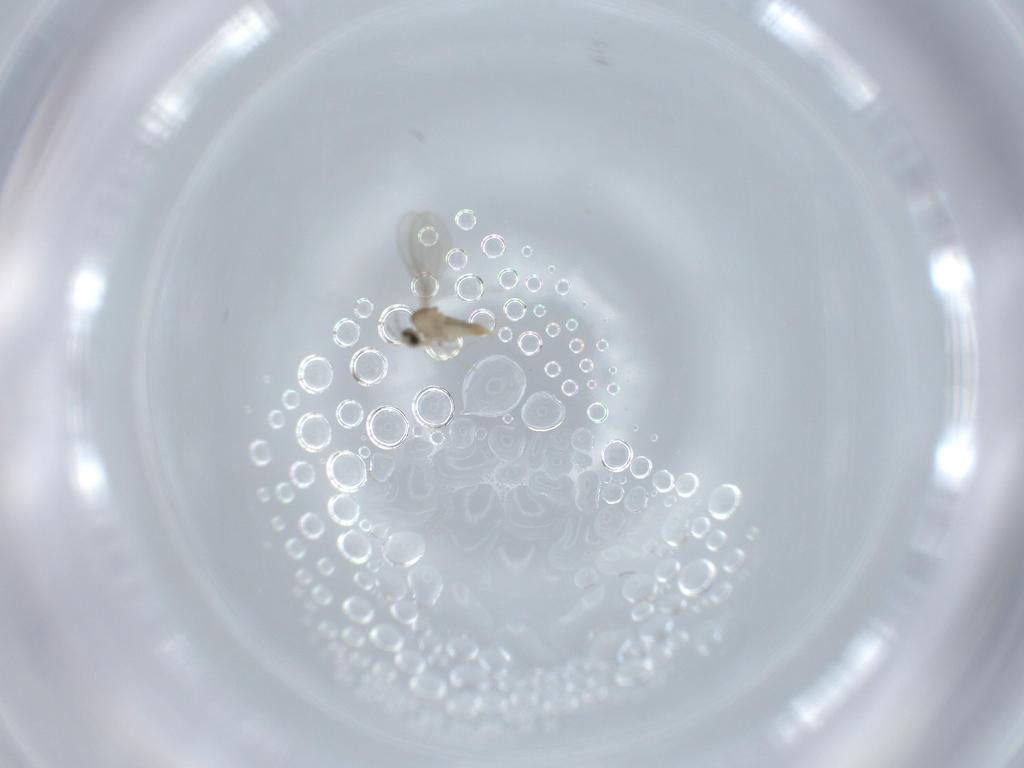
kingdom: Animalia
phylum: Arthropoda
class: Insecta
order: Diptera
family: Cecidomyiidae
